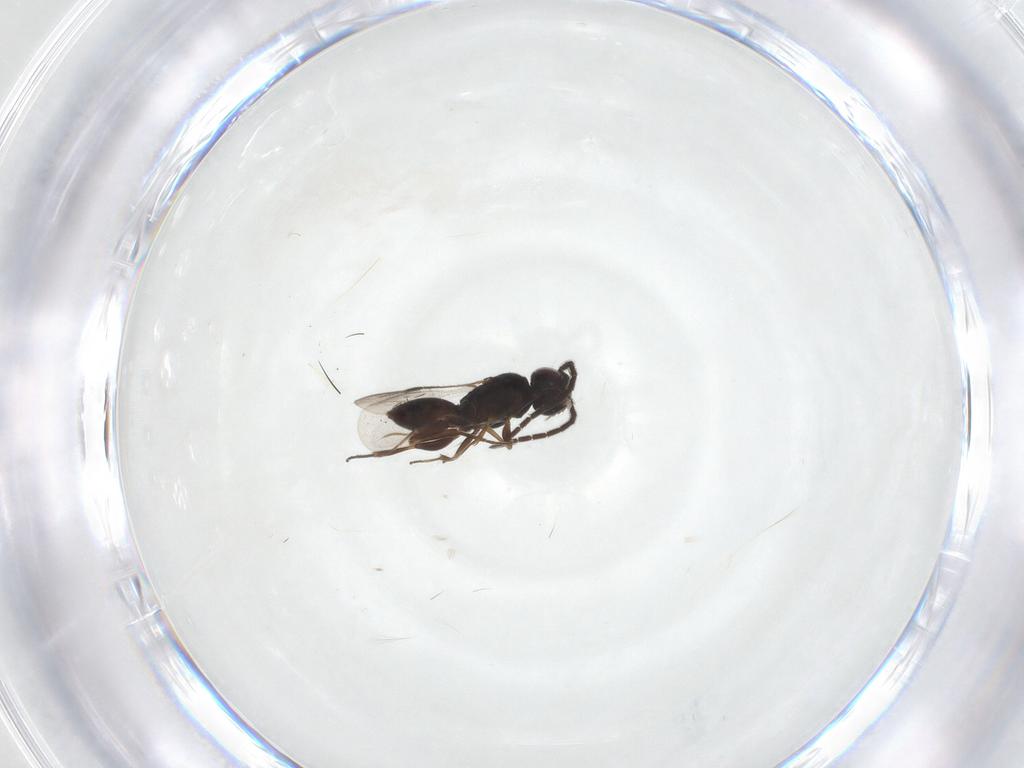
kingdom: Animalia
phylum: Arthropoda
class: Insecta
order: Hymenoptera
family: Megaspilidae
